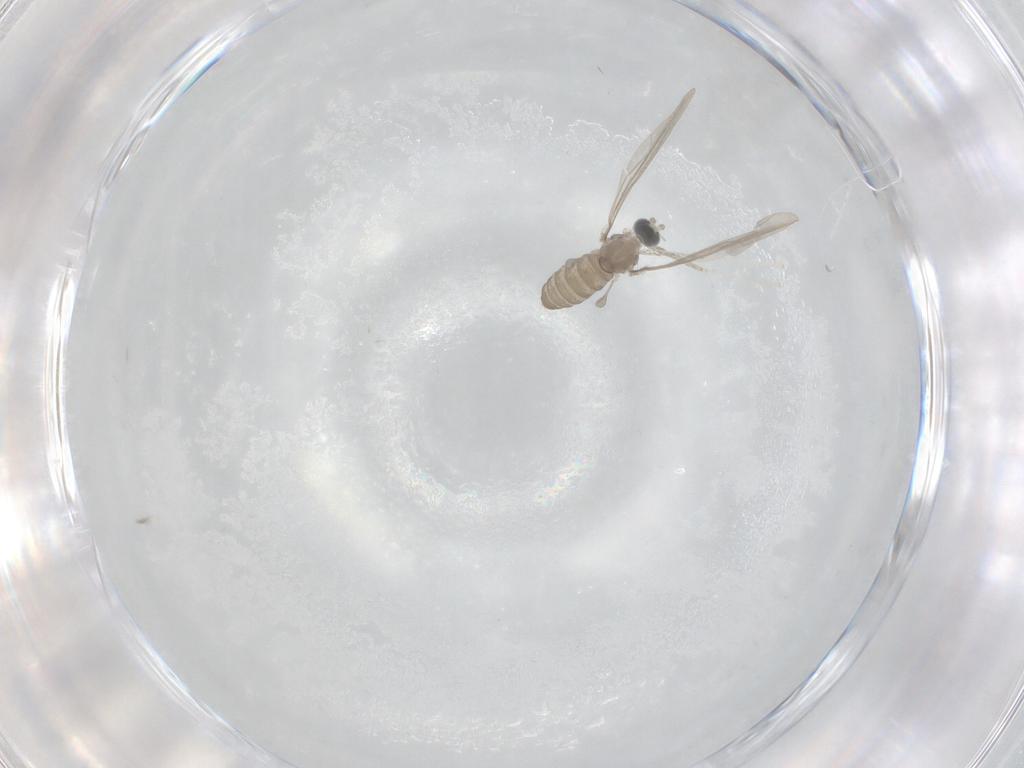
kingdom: Animalia
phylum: Arthropoda
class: Insecta
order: Diptera
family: Cecidomyiidae
